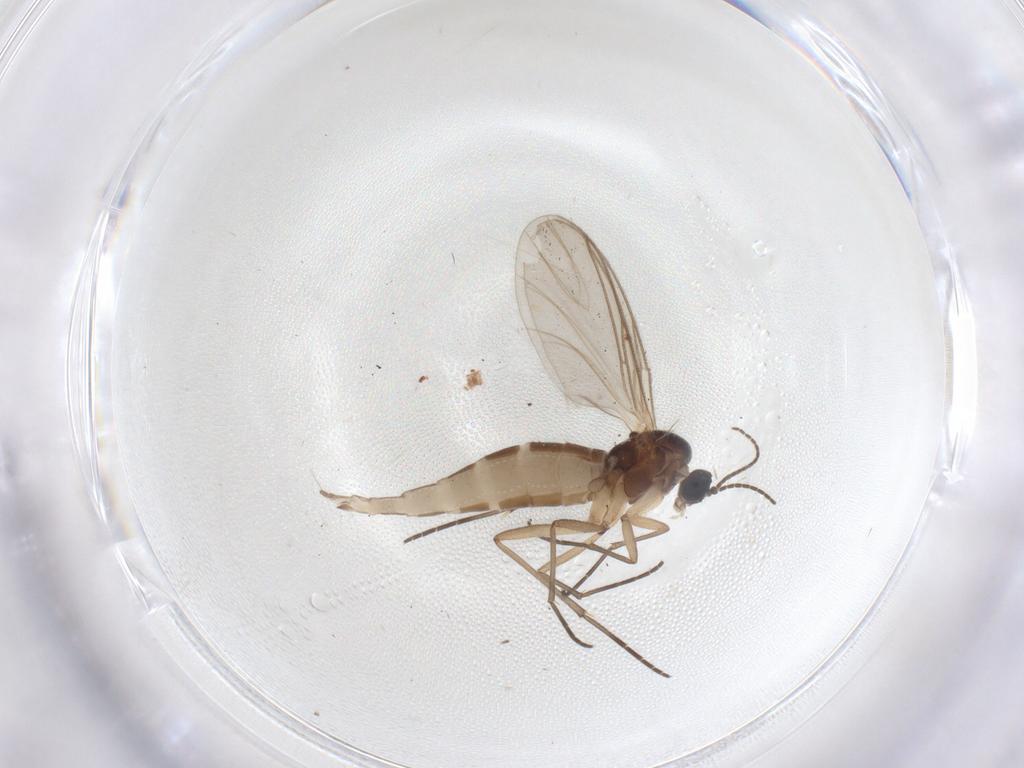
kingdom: Animalia
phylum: Arthropoda
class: Insecta
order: Diptera
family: Sciaridae
